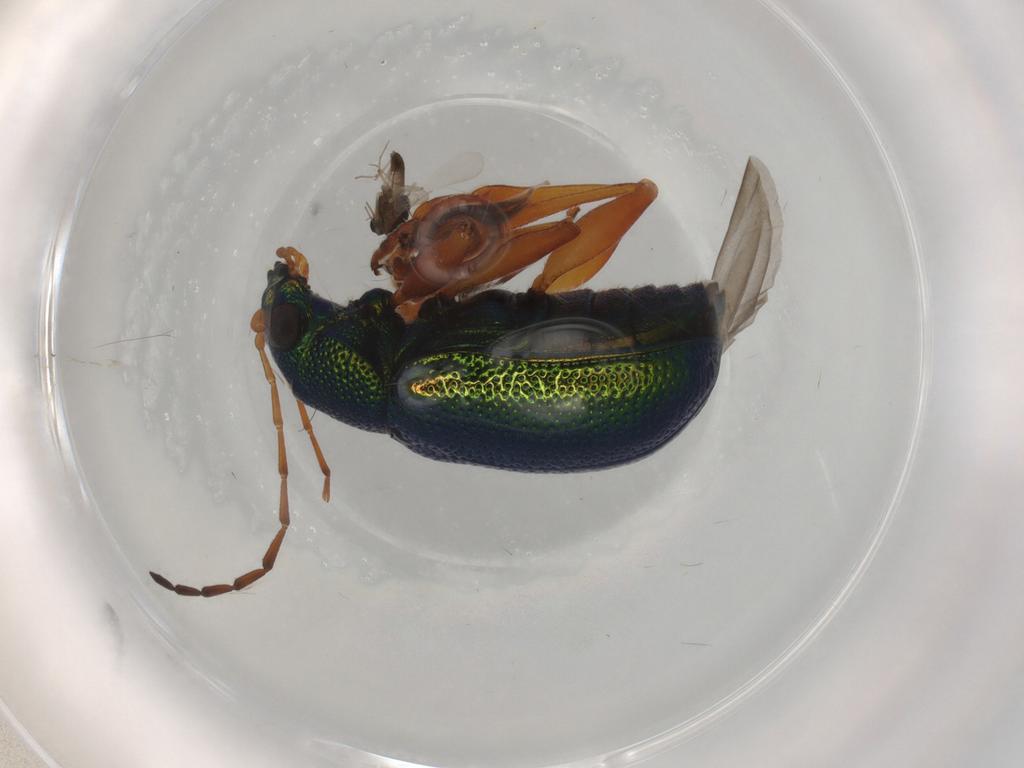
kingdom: Animalia
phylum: Arthropoda
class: Insecta
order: Coleoptera
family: Chrysomelidae
